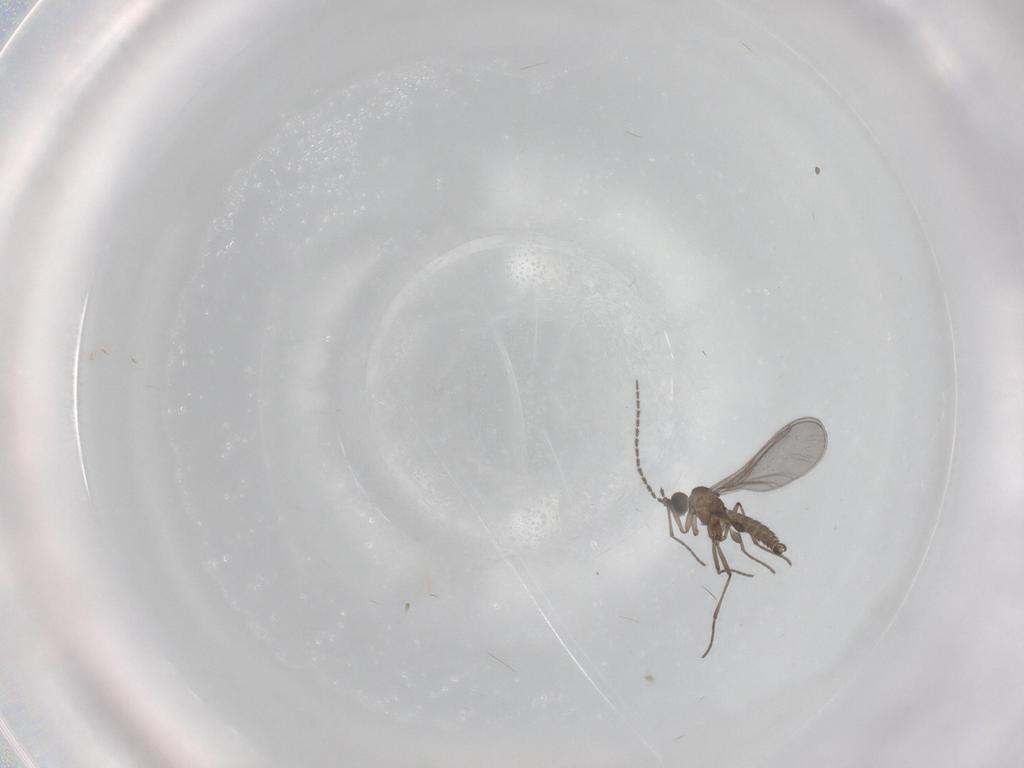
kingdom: Animalia
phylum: Arthropoda
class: Insecta
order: Diptera
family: Sciaridae
